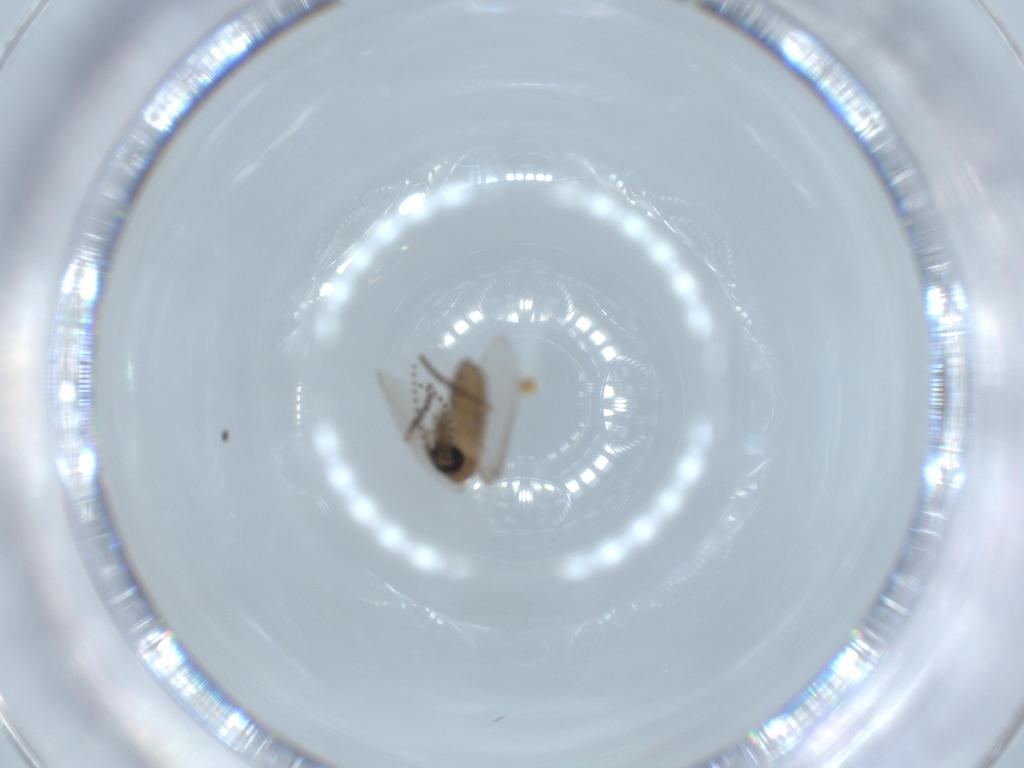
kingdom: Animalia
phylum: Arthropoda
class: Insecta
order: Diptera
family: Psychodidae
